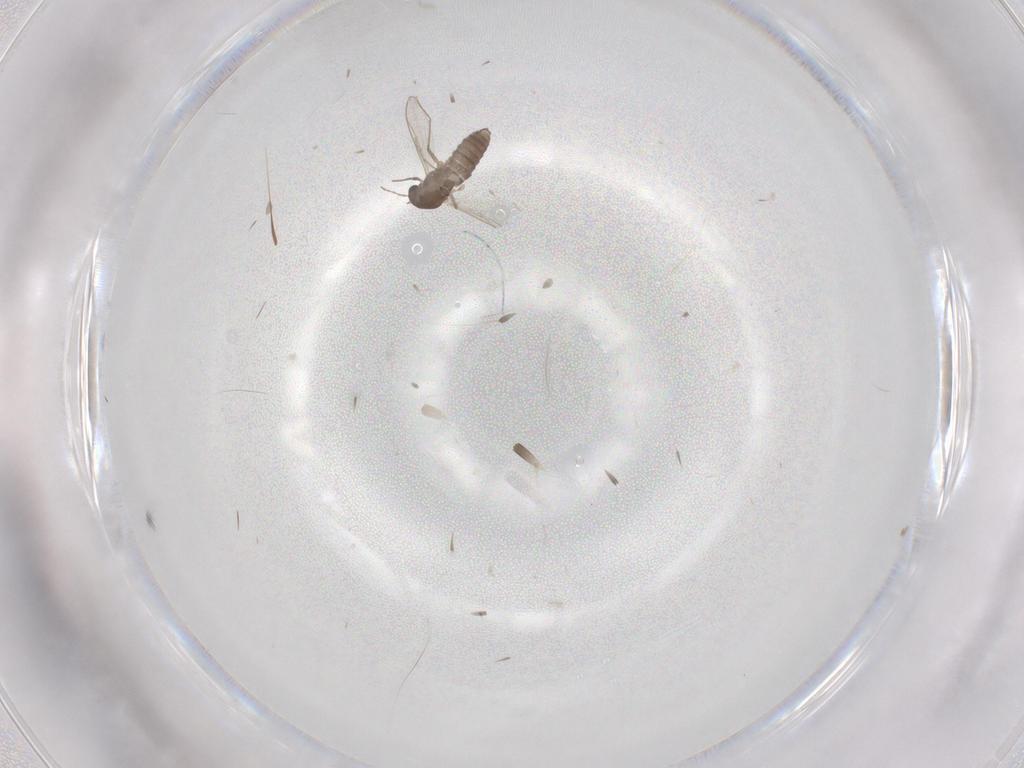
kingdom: Animalia
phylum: Arthropoda
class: Insecta
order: Diptera
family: Chironomidae
